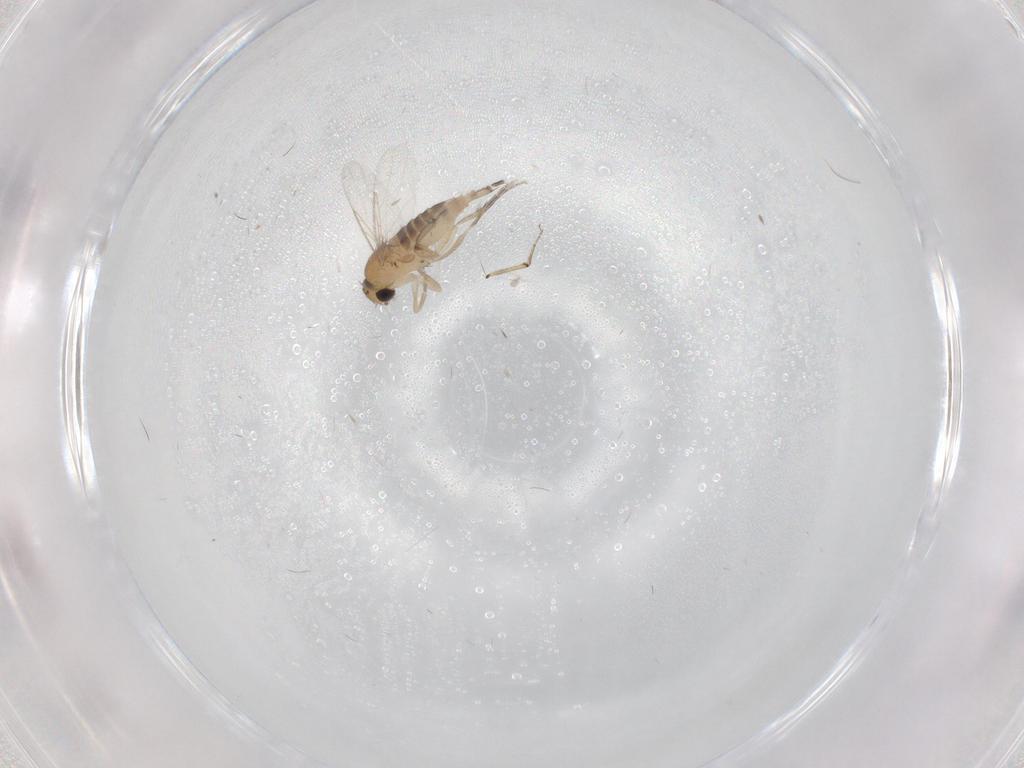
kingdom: Animalia
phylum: Arthropoda
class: Insecta
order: Diptera
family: Ceratopogonidae
